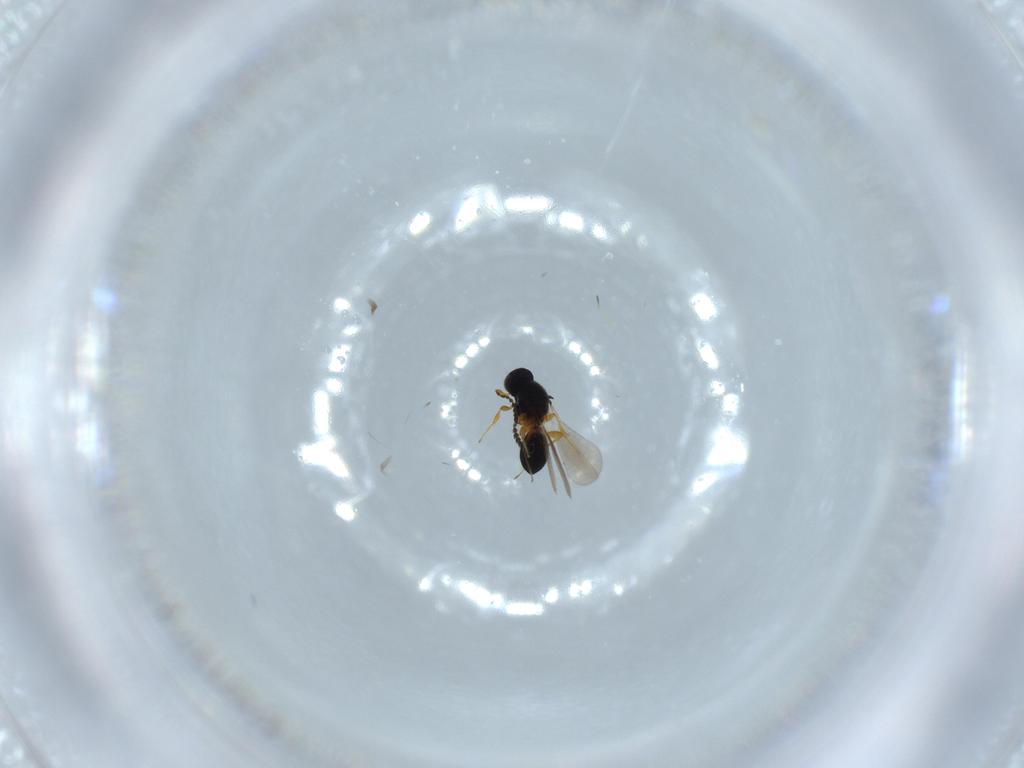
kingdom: Animalia
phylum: Arthropoda
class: Insecta
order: Hymenoptera
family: Platygastridae
